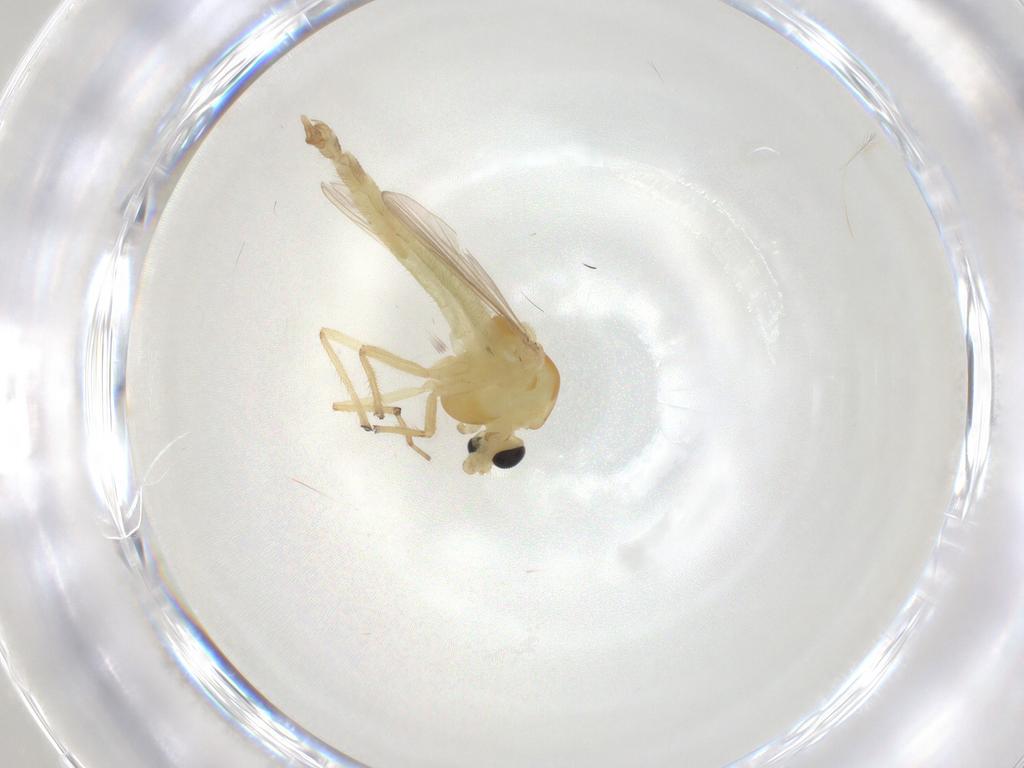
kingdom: Animalia
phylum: Arthropoda
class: Insecta
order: Diptera
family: Chironomidae
